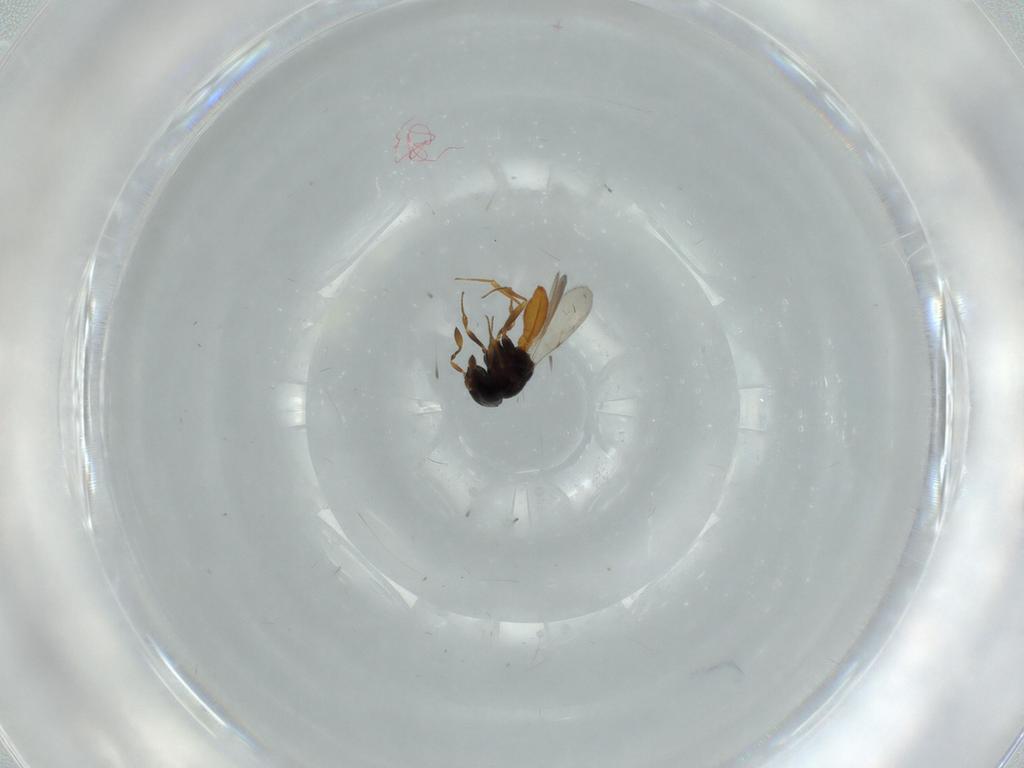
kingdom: Animalia
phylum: Arthropoda
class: Insecta
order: Hymenoptera
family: Scelionidae
